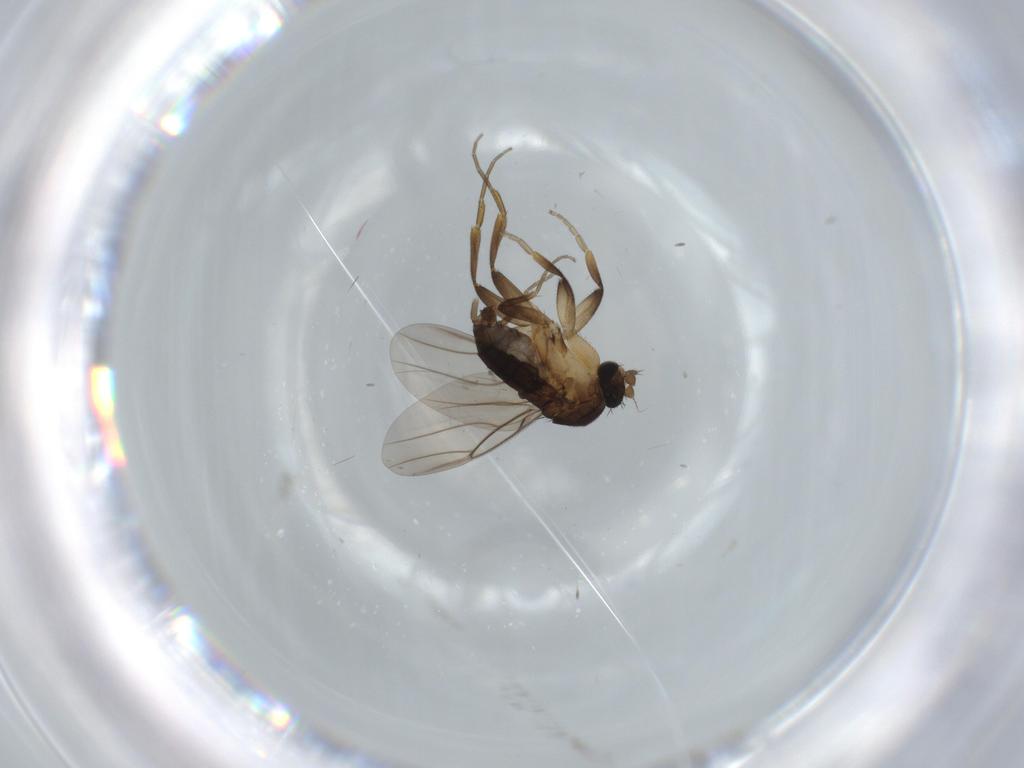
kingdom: Animalia
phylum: Arthropoda
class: Insecta
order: Diptera
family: Phoridae
